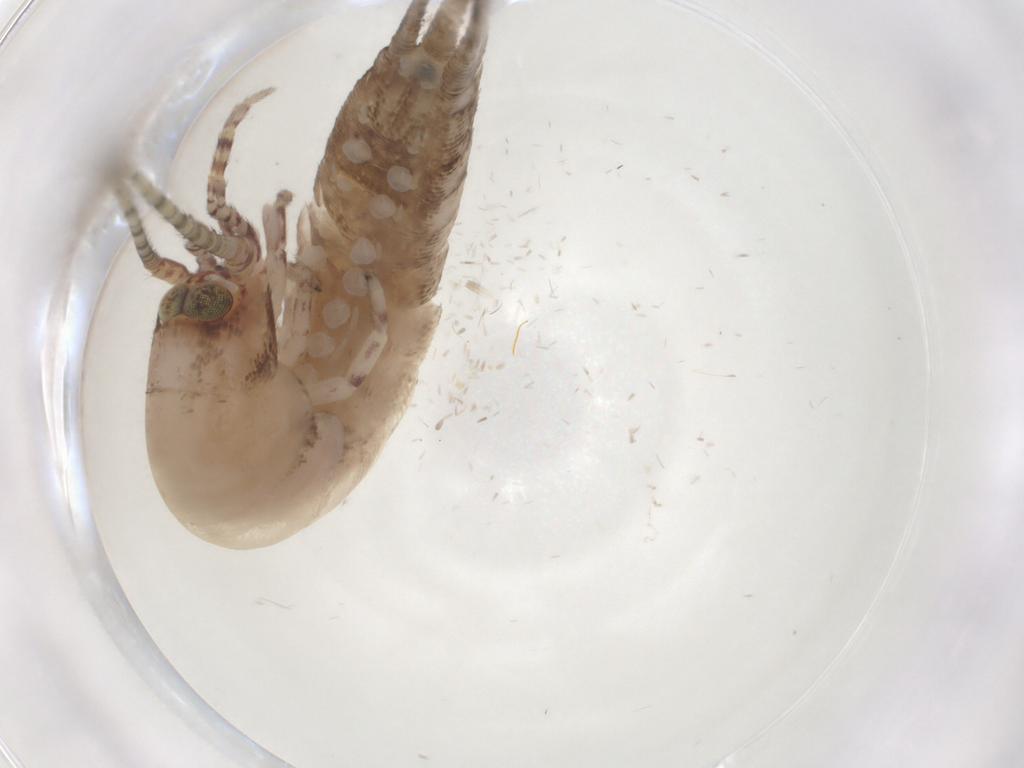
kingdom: Animalia
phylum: Arthropoda
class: Insecta
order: Archaeognatha
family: Machilidae
